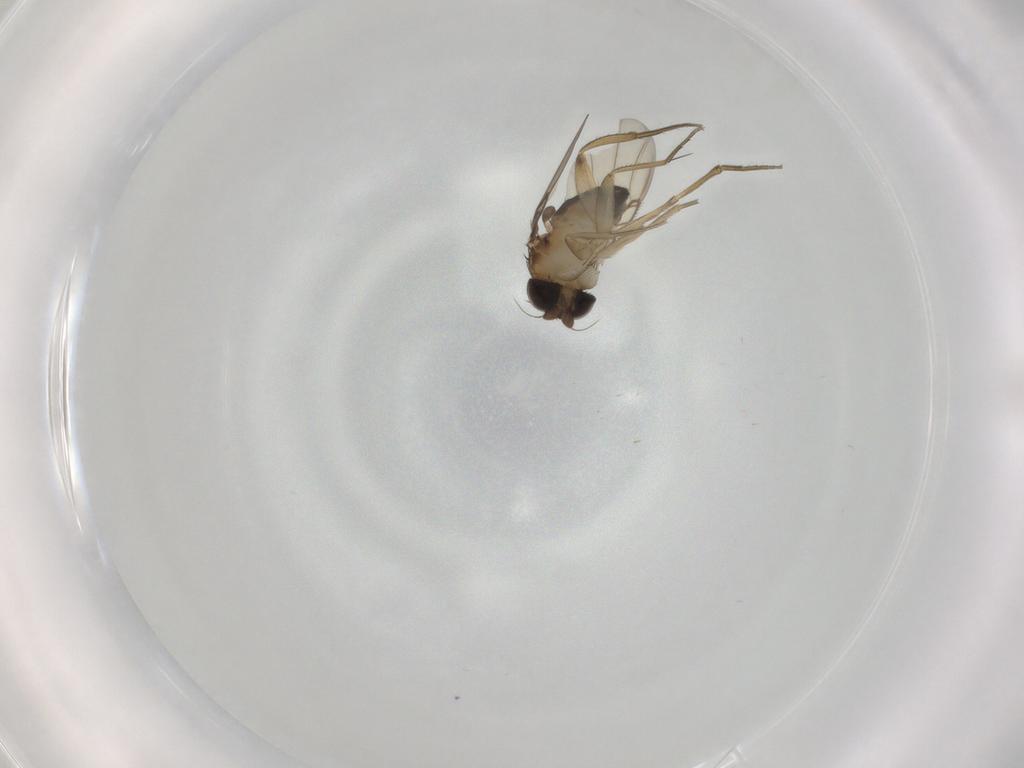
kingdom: Animalia
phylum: Arthropoda
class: Insecta
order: Diptera
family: Phoridae
